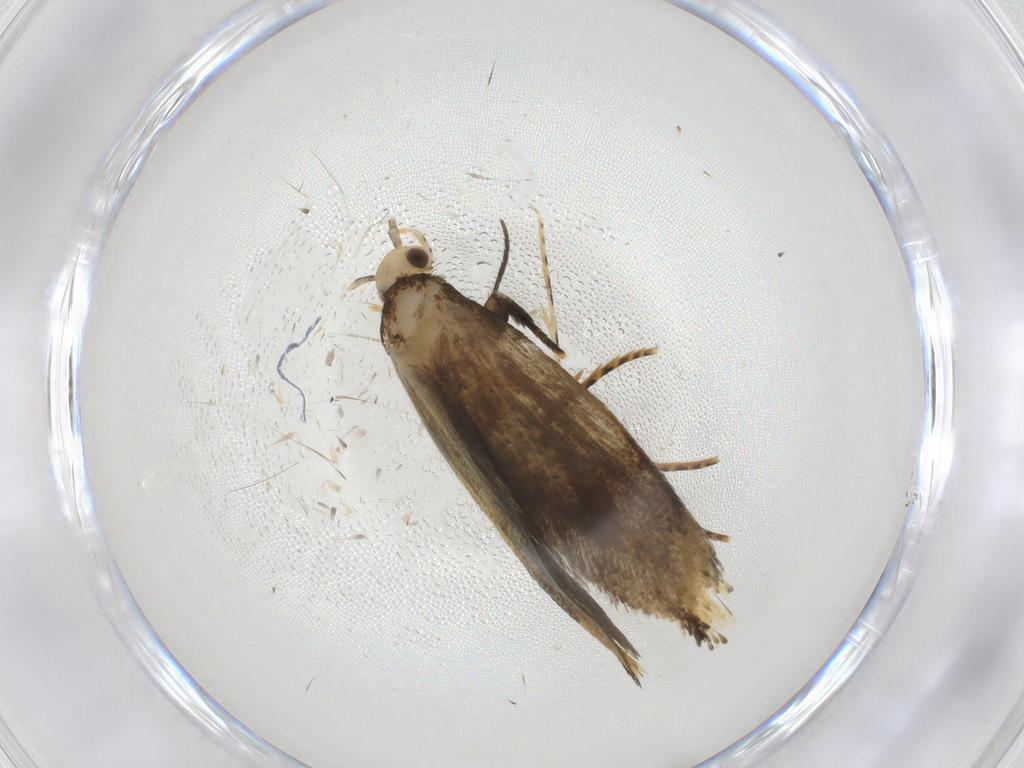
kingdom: Animalia
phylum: Arthropoda
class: Insecta
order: Lepidoptera
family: Pieridae
